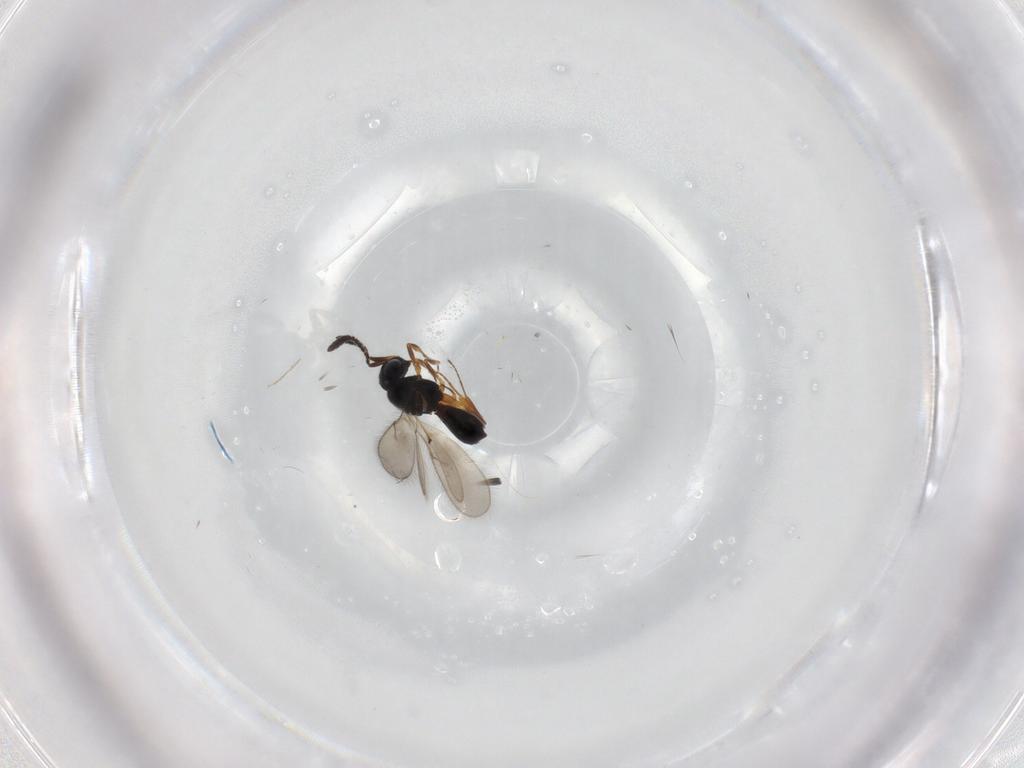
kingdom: Animalia
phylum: Arthropoda
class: Insecta
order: Hymenoptera
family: Scelionidae
